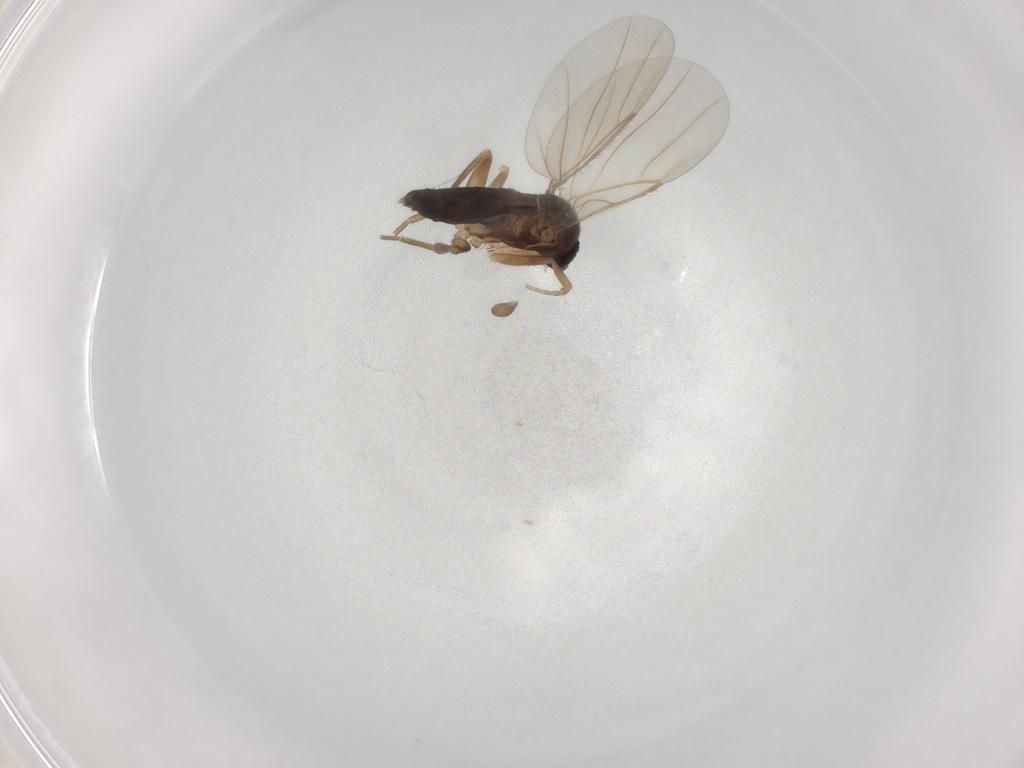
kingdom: Animalia
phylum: Arthropoda
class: Insecta
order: Diptera
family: Phoridae
